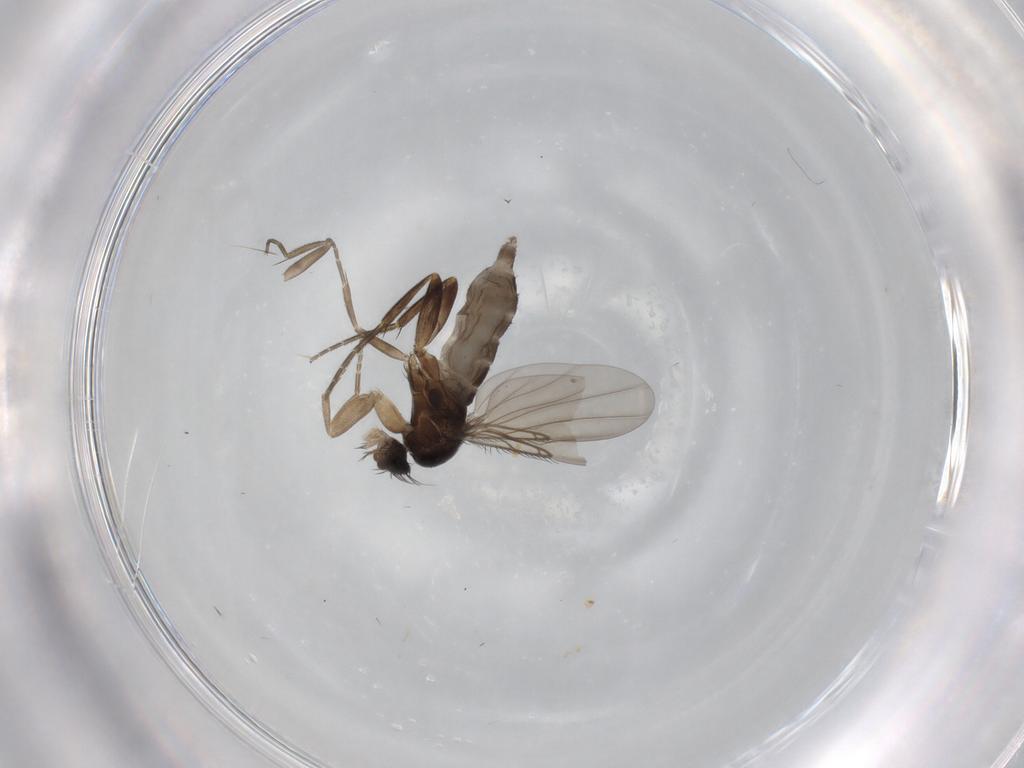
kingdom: Animalia
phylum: Arthropoda
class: Insecta
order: Diptera
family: Phoridae
